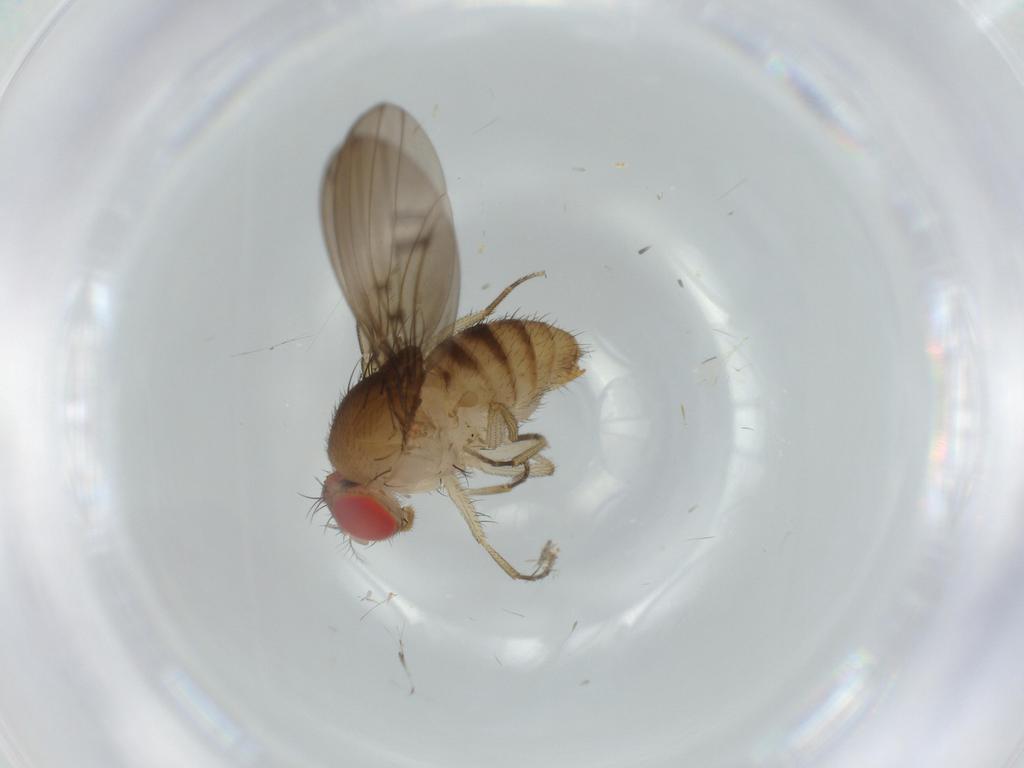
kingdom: Animalia
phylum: Arthropoda
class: Insecta
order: Diptera
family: Drosophilidae
